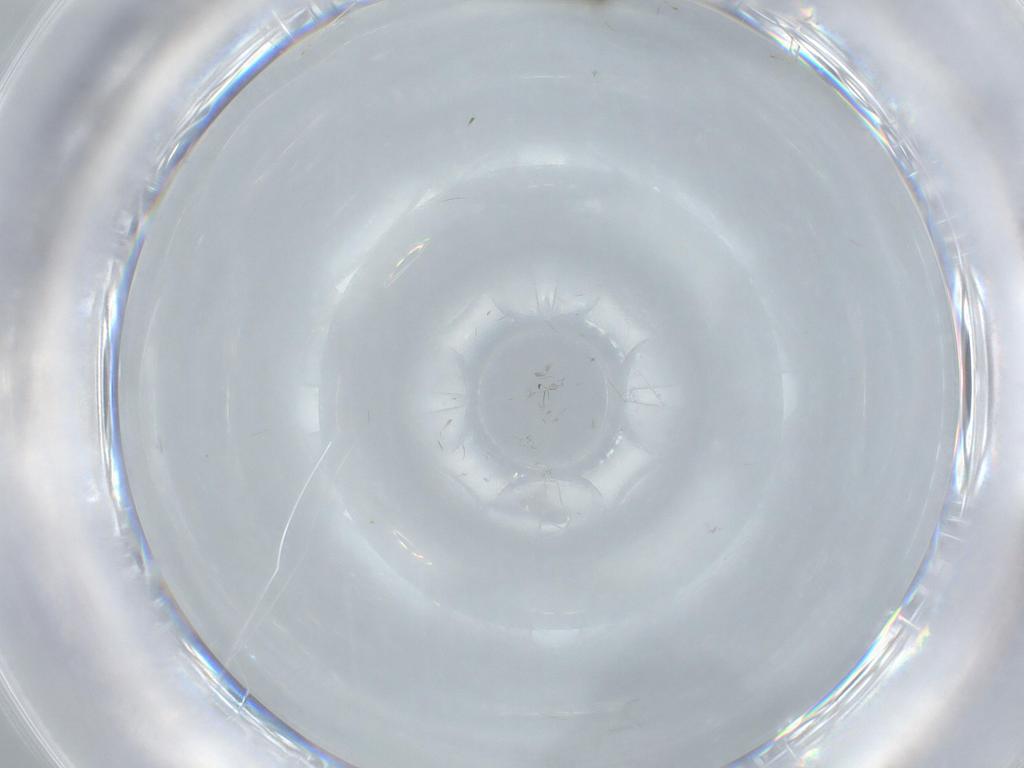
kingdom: Animalia
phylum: Arthropoda
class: Insecta
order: Diptera
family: Cecidomyiidae
